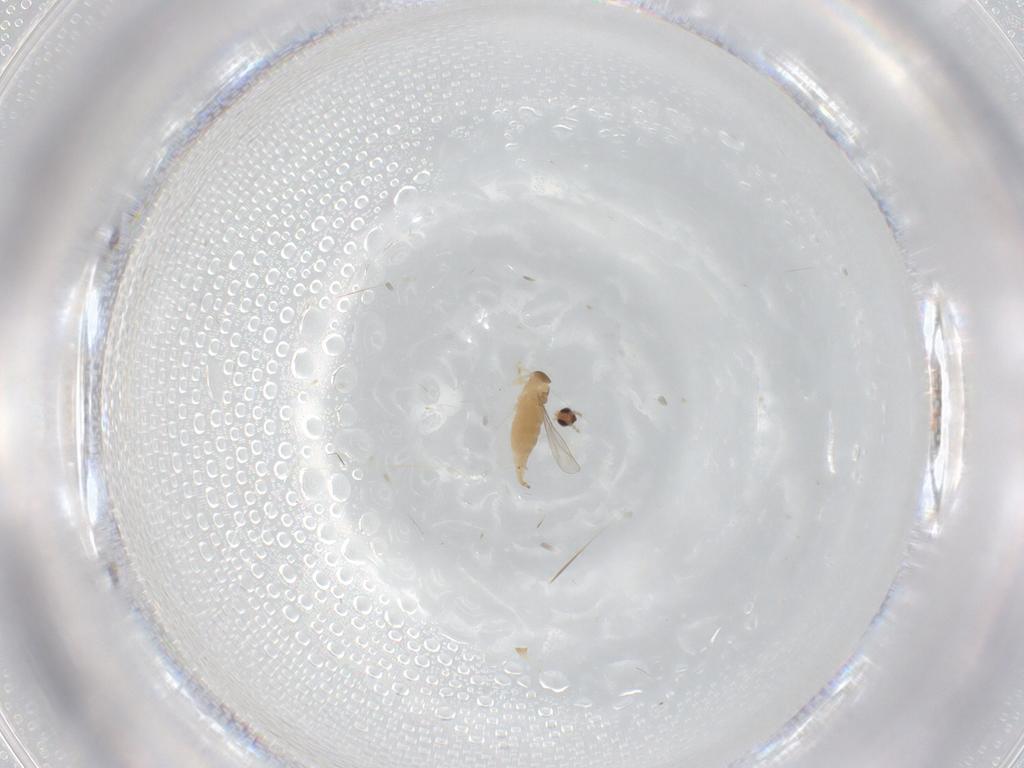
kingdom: Animalia
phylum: Arthropoda
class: Insecta
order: Diptera
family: Cecidomyiidae
